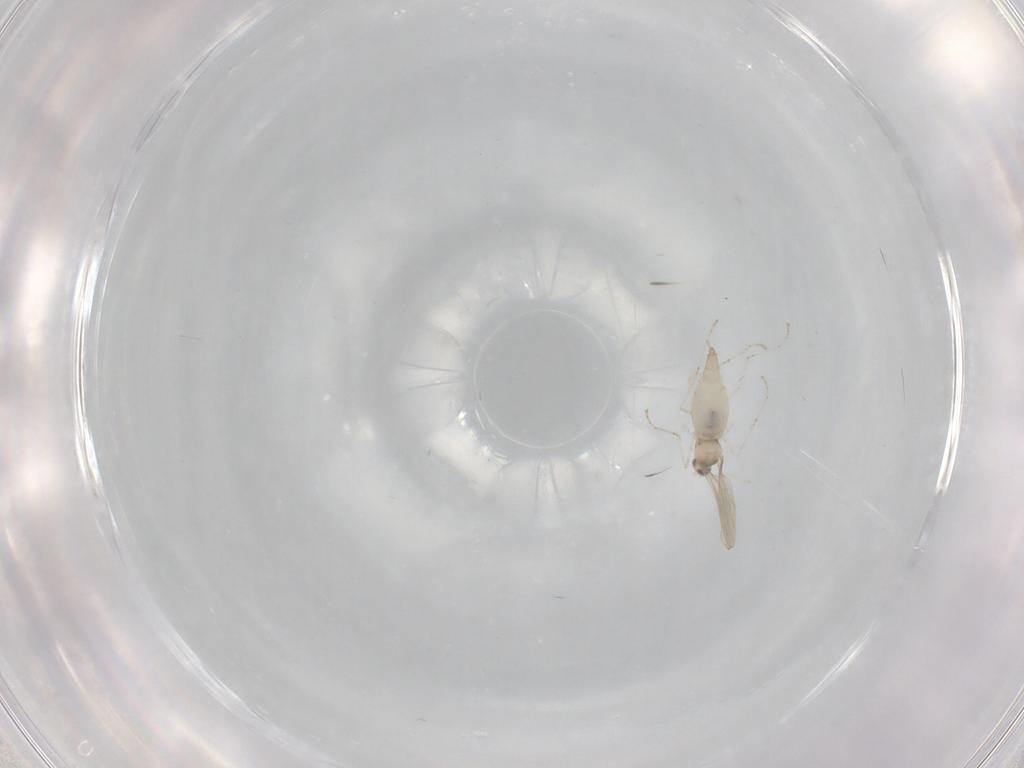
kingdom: Animalia
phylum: Arthropoda
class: Insecta
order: Diptera
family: Cecidomyiidae
